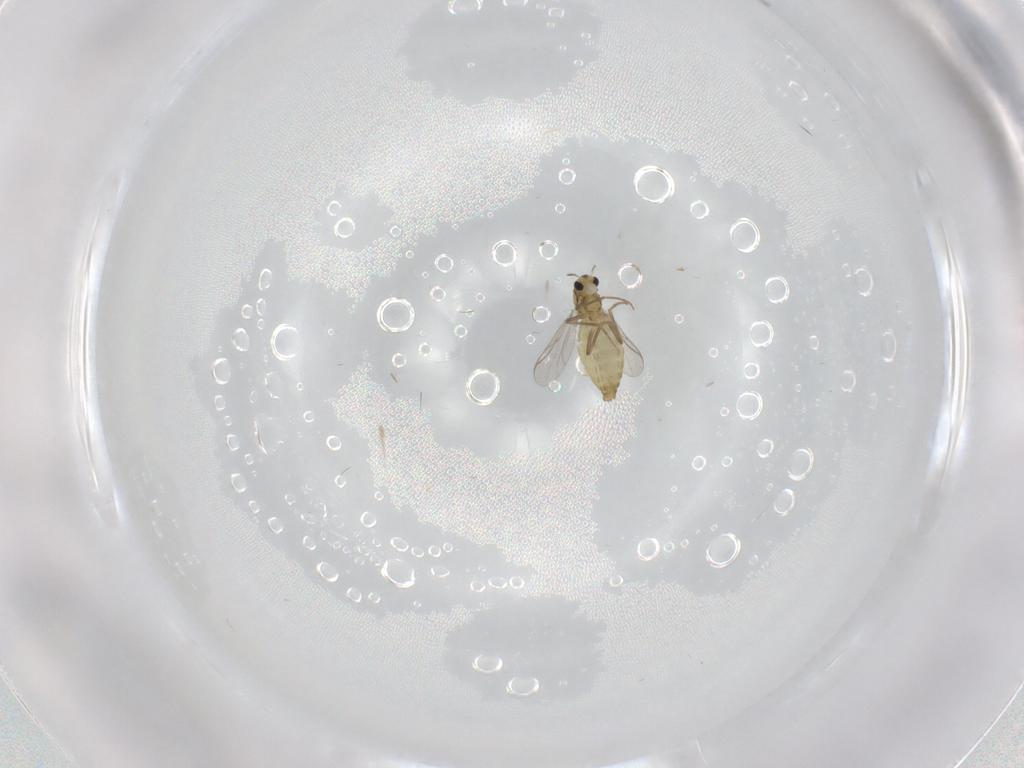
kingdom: Animalia
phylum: Arthropoda
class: Insecta
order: Diptera
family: Chironomidae
